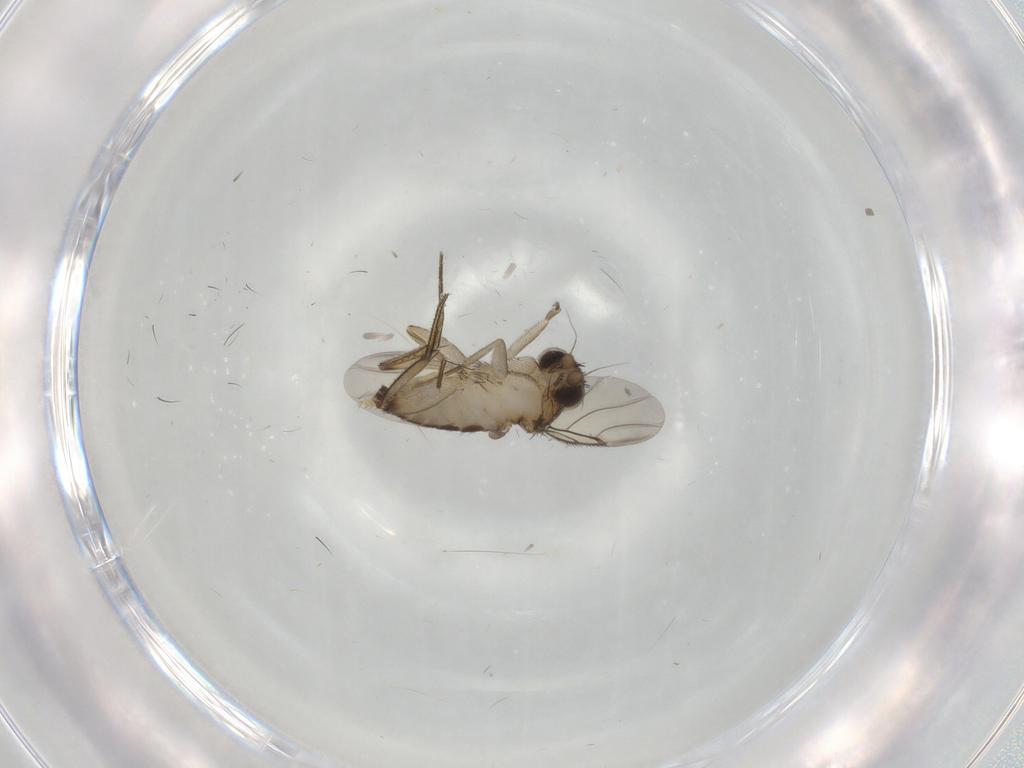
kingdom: Animalia
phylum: Arthropoda
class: Insecta
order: Diptera
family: Phoridae
